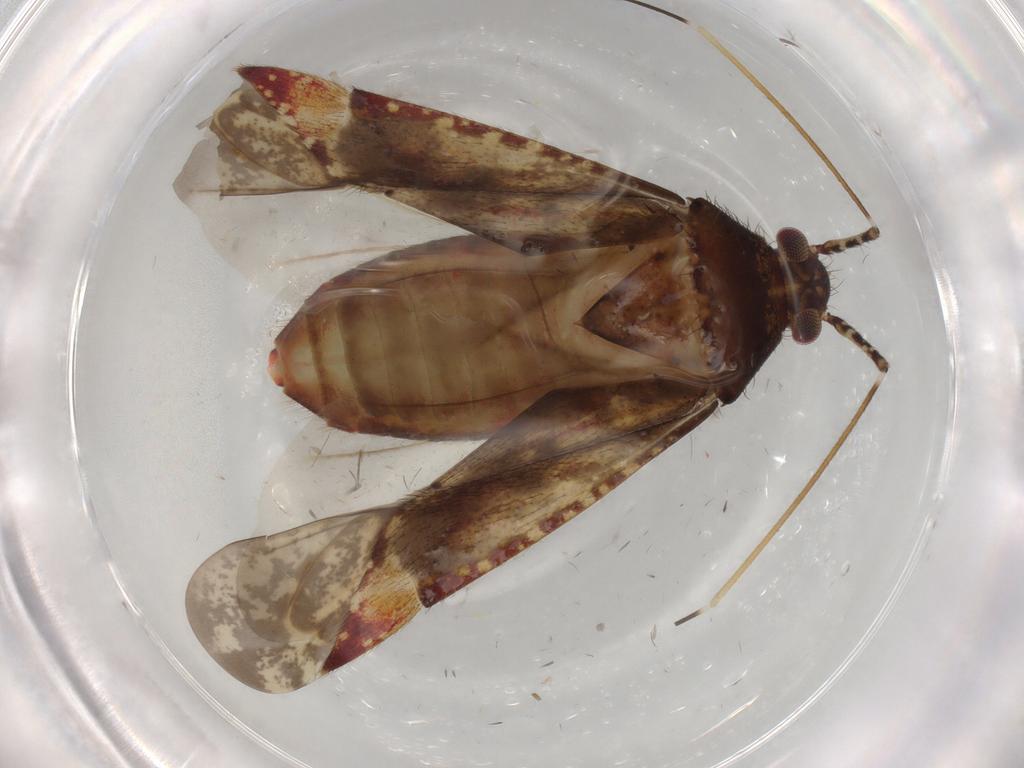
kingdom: Animalia
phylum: Arthropoda
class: Insecta
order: Hemiptera
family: Miridae
